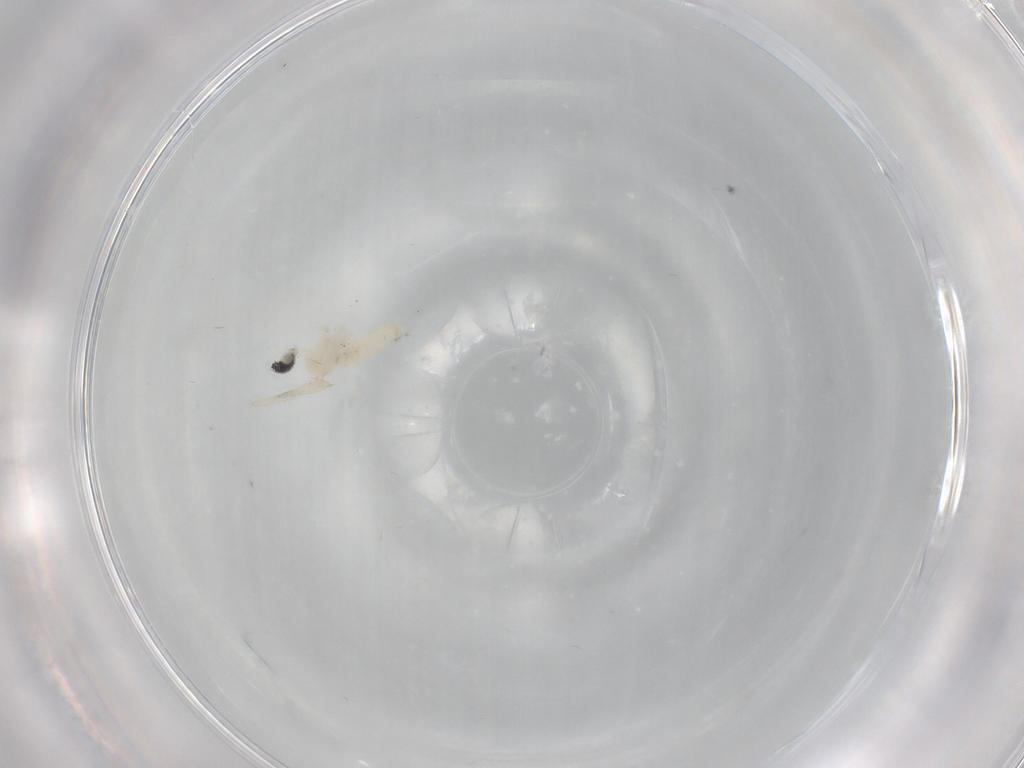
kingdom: Animalia
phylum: Arthropoda
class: Insecta
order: Diptera
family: Cecidomyiidae
